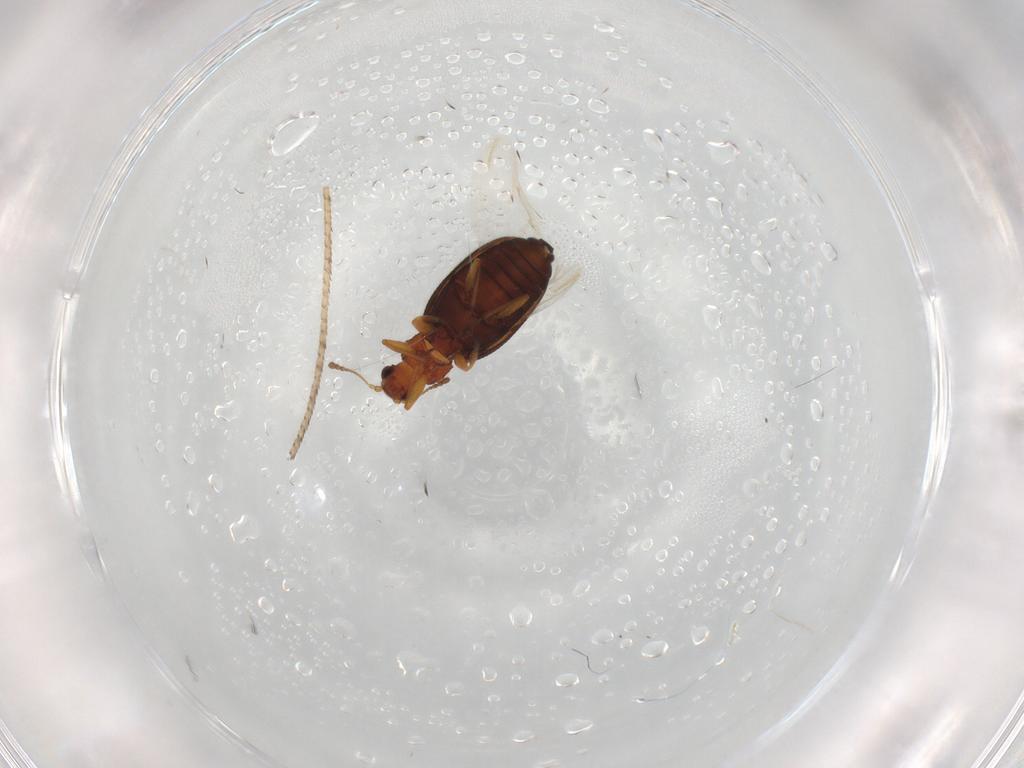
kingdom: Animalia
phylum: Arthropoda
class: Insecta
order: Coleoptera
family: Latridiidae
